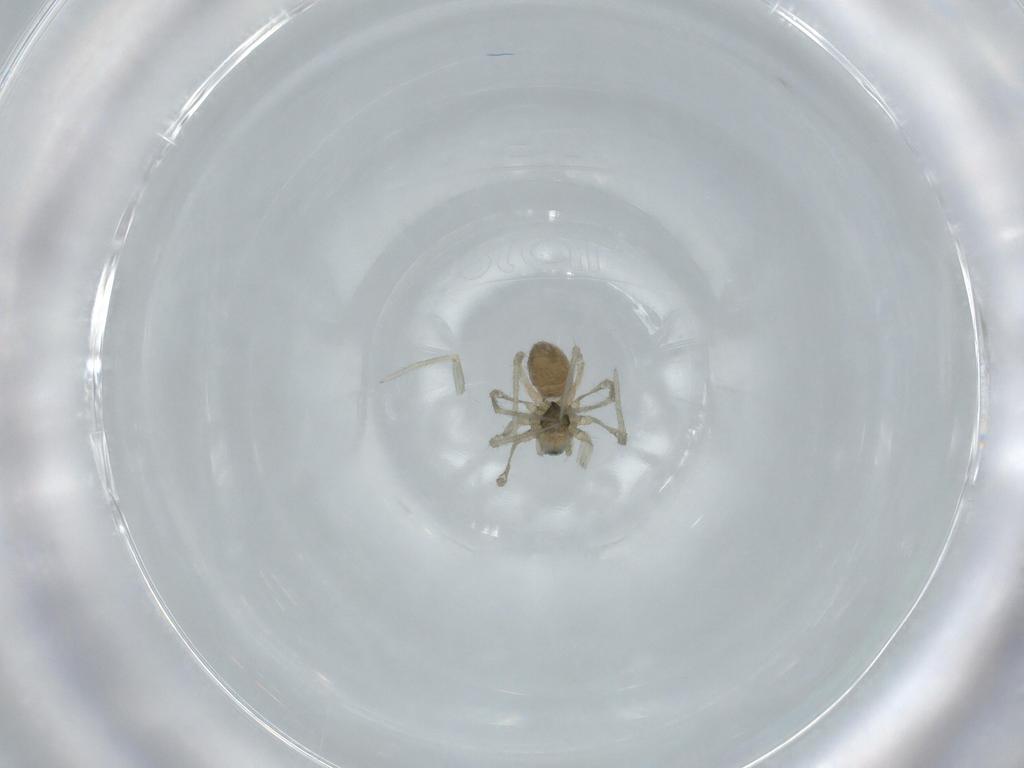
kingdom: Animalia
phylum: Arthropoda
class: Arachnida
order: Araneae
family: Linyphiidae
